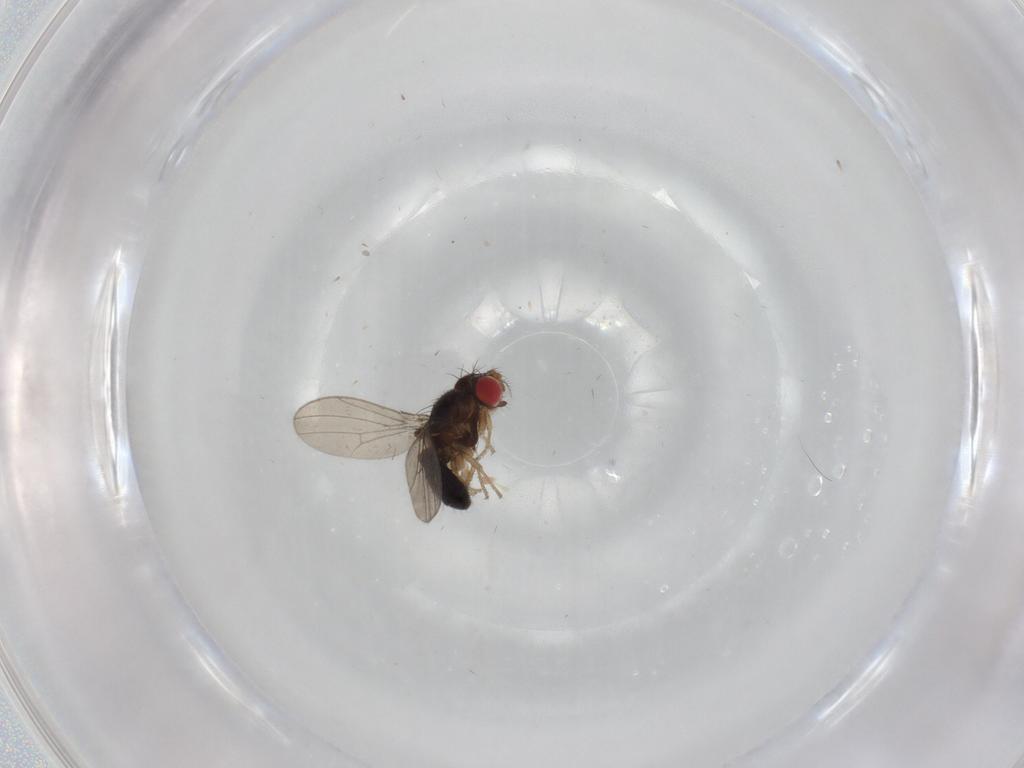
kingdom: Animalia
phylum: Arthropoda
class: Insecta
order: Diptera
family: Drosophilidae
